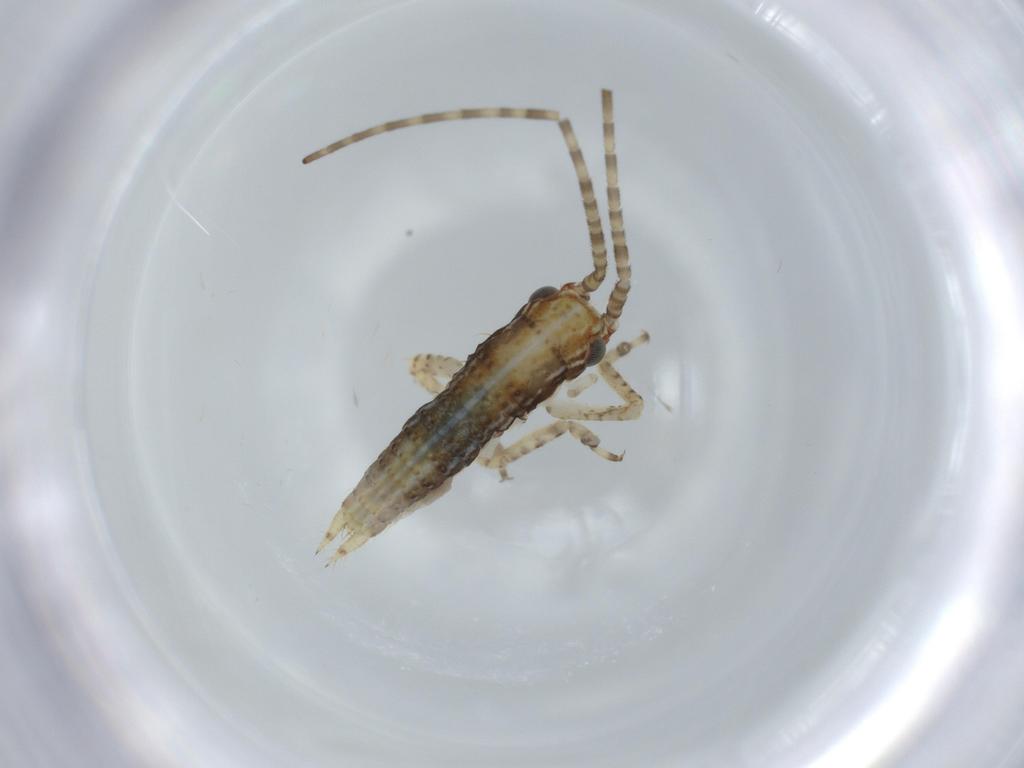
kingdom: Animalia
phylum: Arthropoda
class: Insecta
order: Orthoptera
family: Gryllidae
